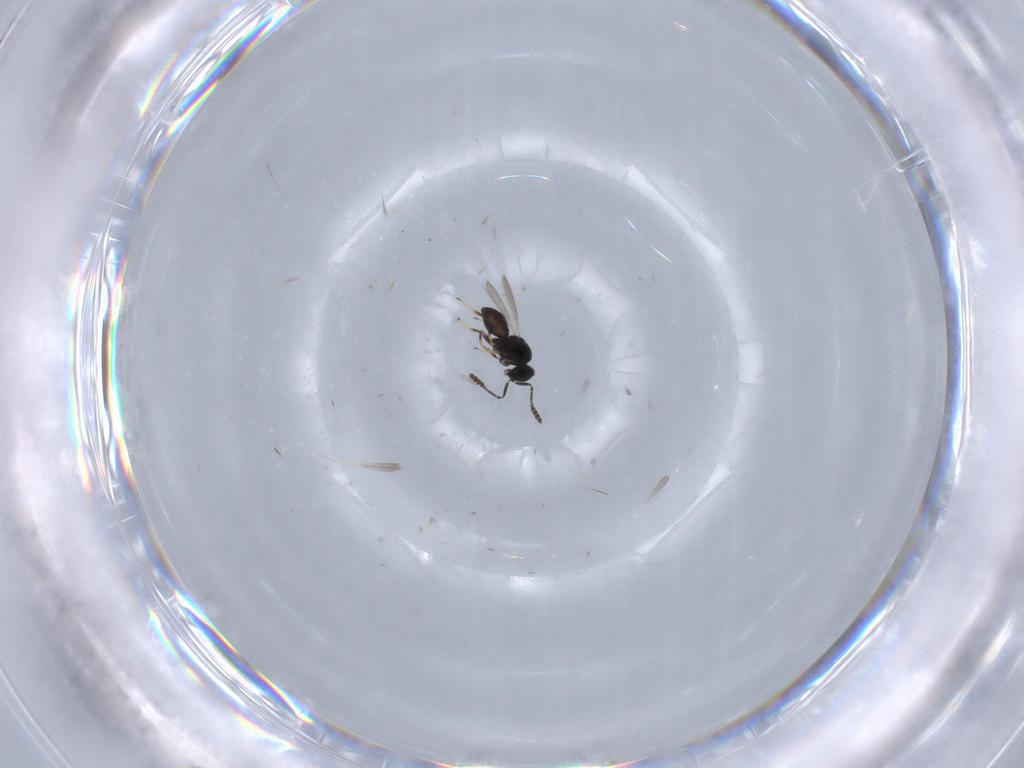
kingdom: Animalia
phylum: Arthropoda
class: Insecta
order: Hymenoptera
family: Scelionidae
